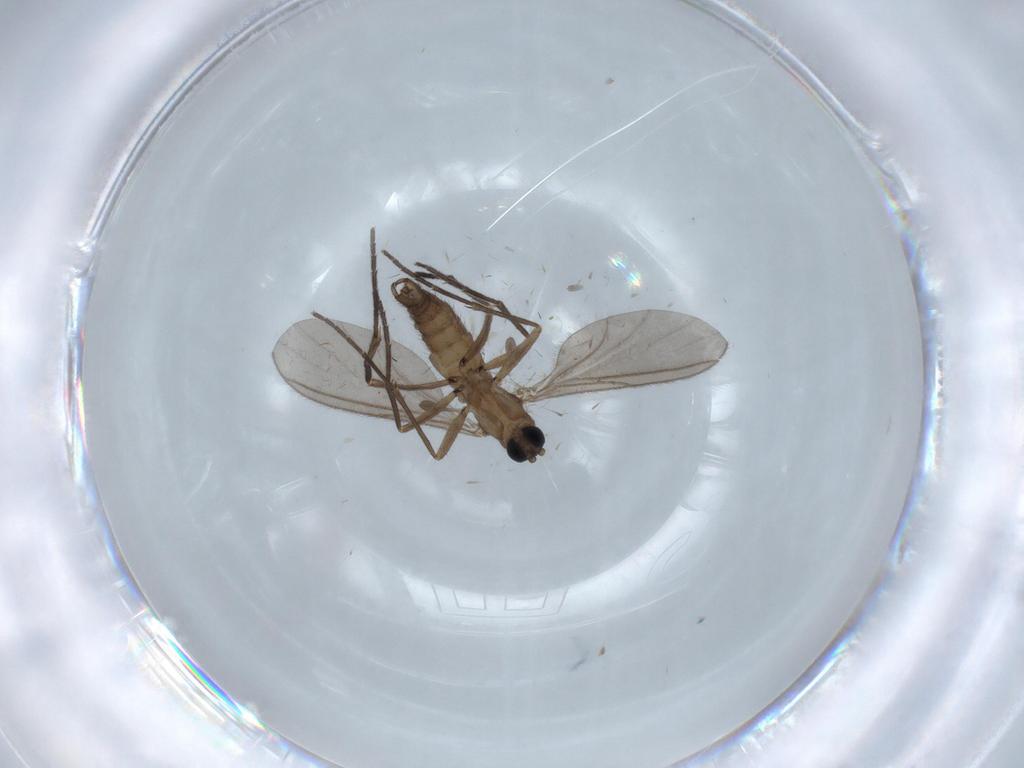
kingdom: Animalia
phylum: Arthropoda
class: Insecta
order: Diptera
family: Sciaridae
